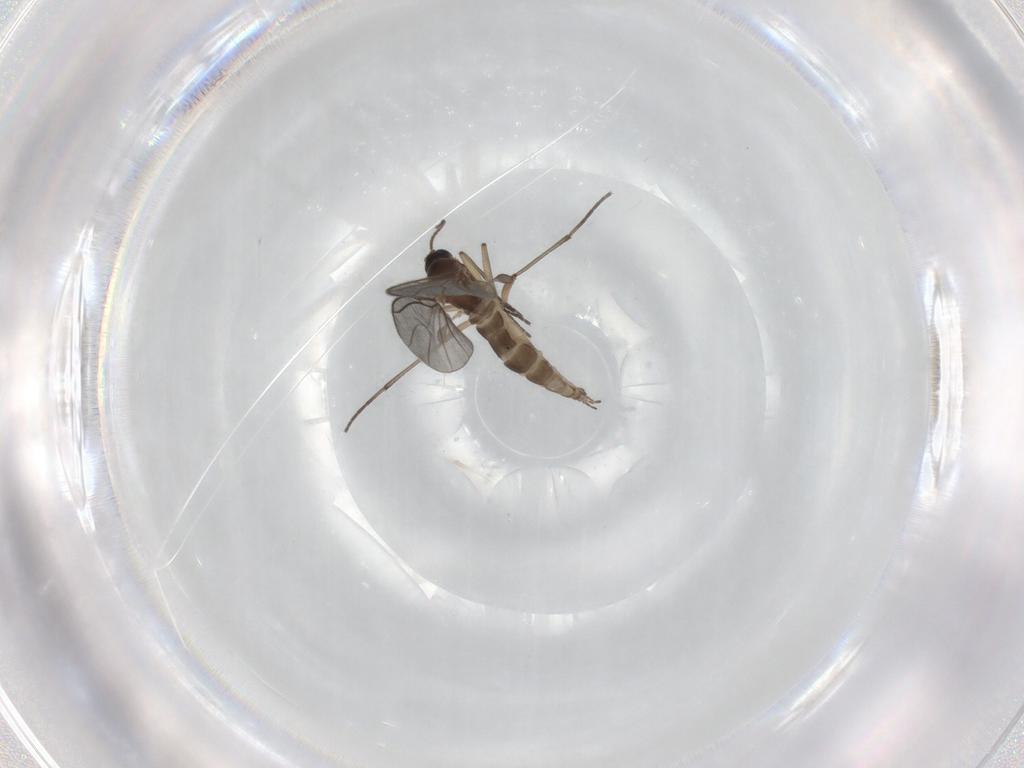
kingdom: Animalia
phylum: Arthropoda
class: Insecta
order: Diptera
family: Sciaridae
